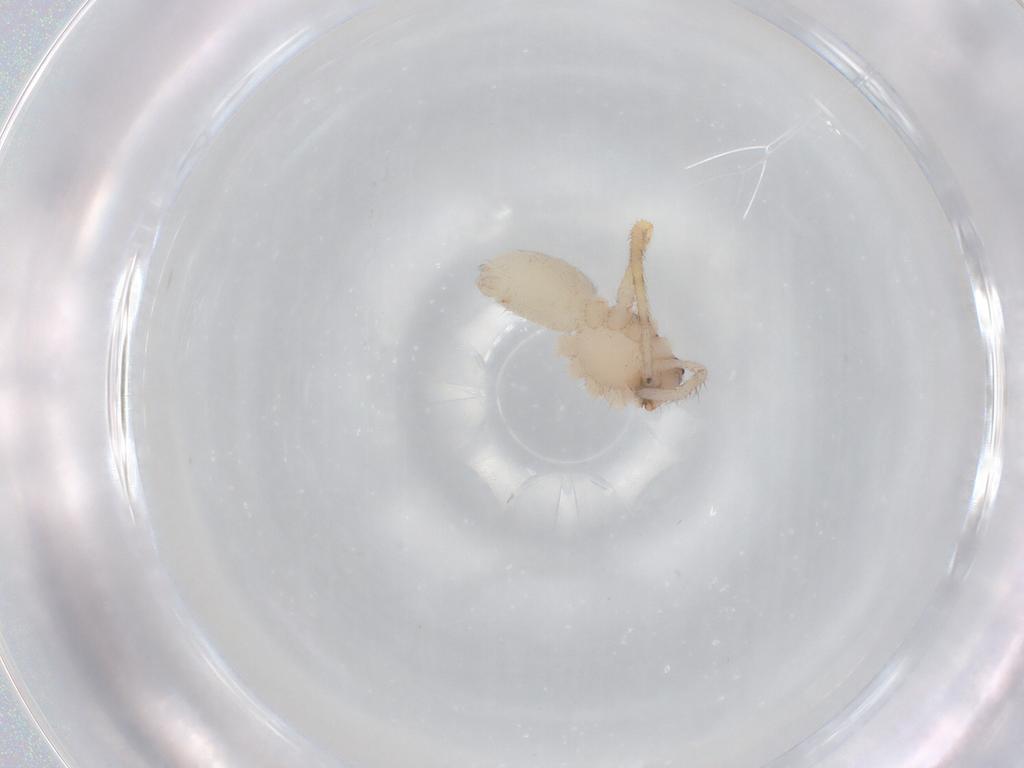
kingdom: Animalia
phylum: Arthropoda
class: Arachnida
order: Araneae
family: Corinnidae
